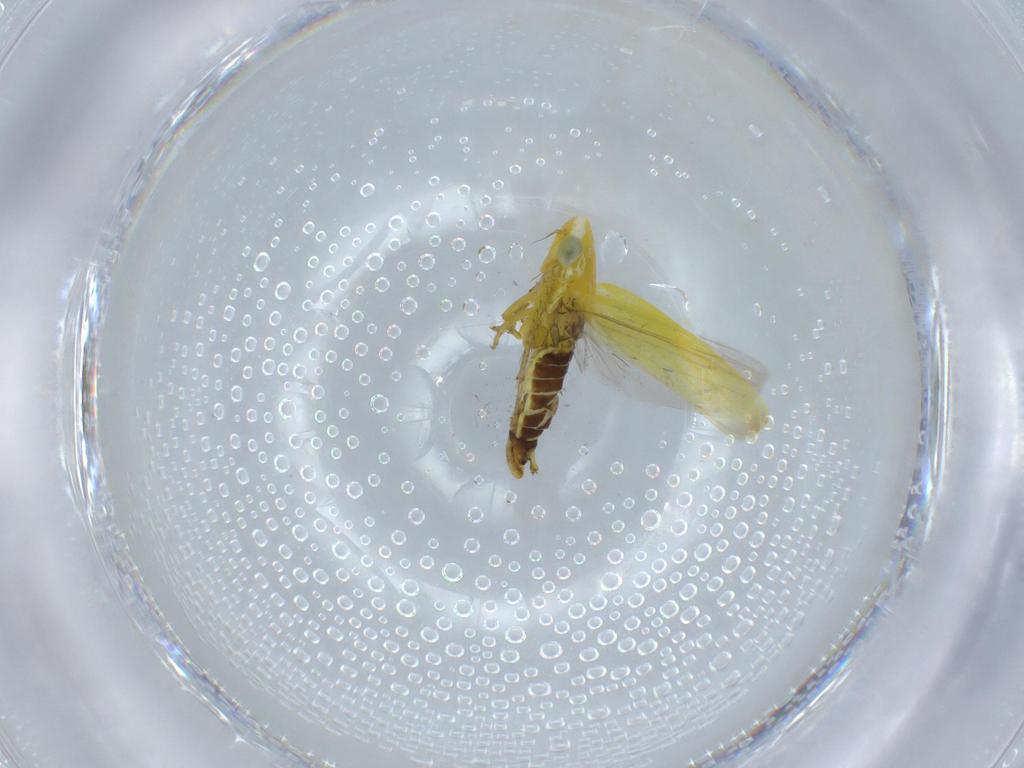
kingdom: Animalia
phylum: Arthropoda
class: Insecta
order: Hemiptera
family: Cicadellidae
